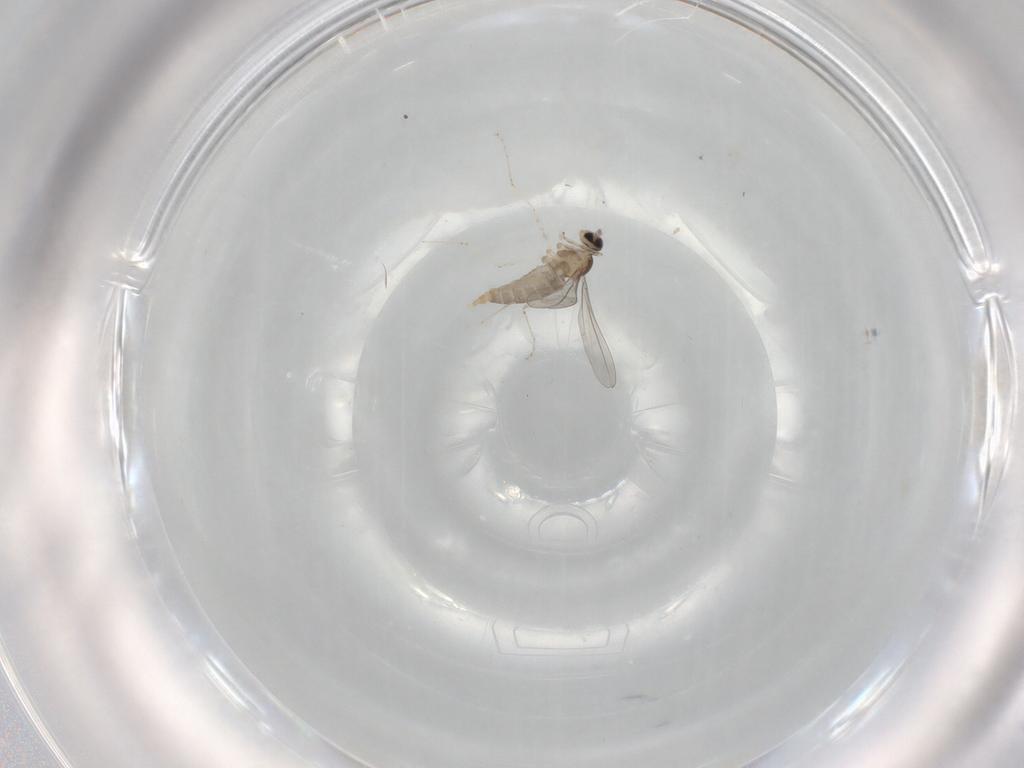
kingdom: Animalia
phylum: Arthropoda
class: Insecta
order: Diptera
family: Cecidomyiidae
